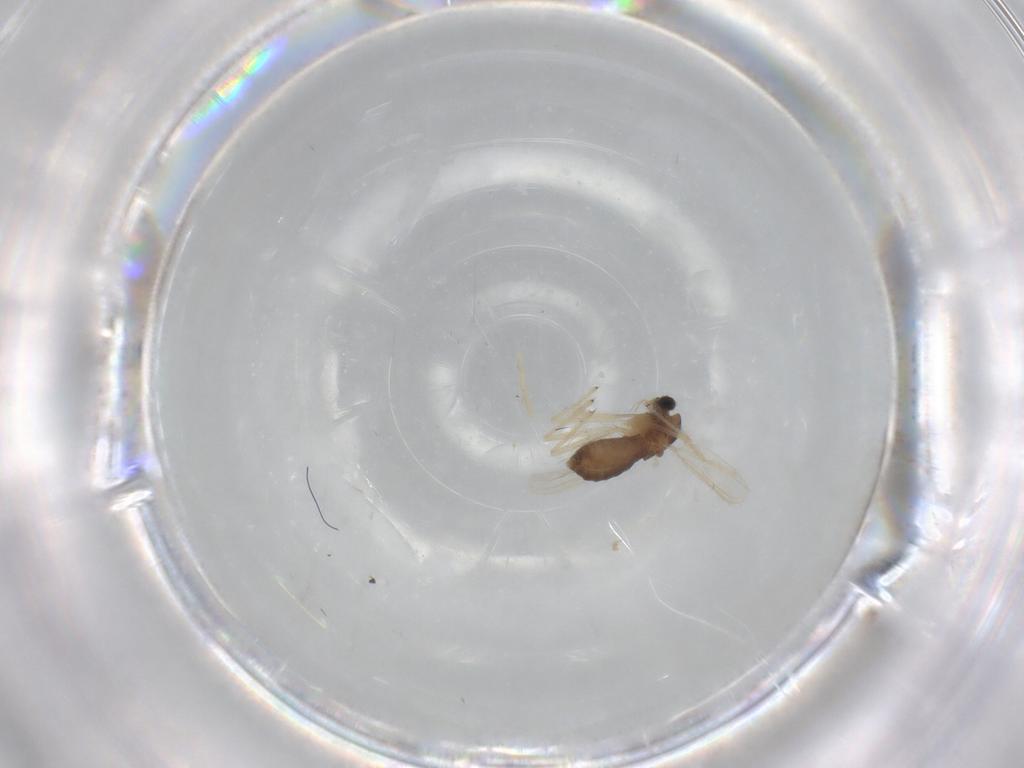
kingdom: Animalia
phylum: Arthropoda
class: Insecta
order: Diptera
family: Chironomidae
